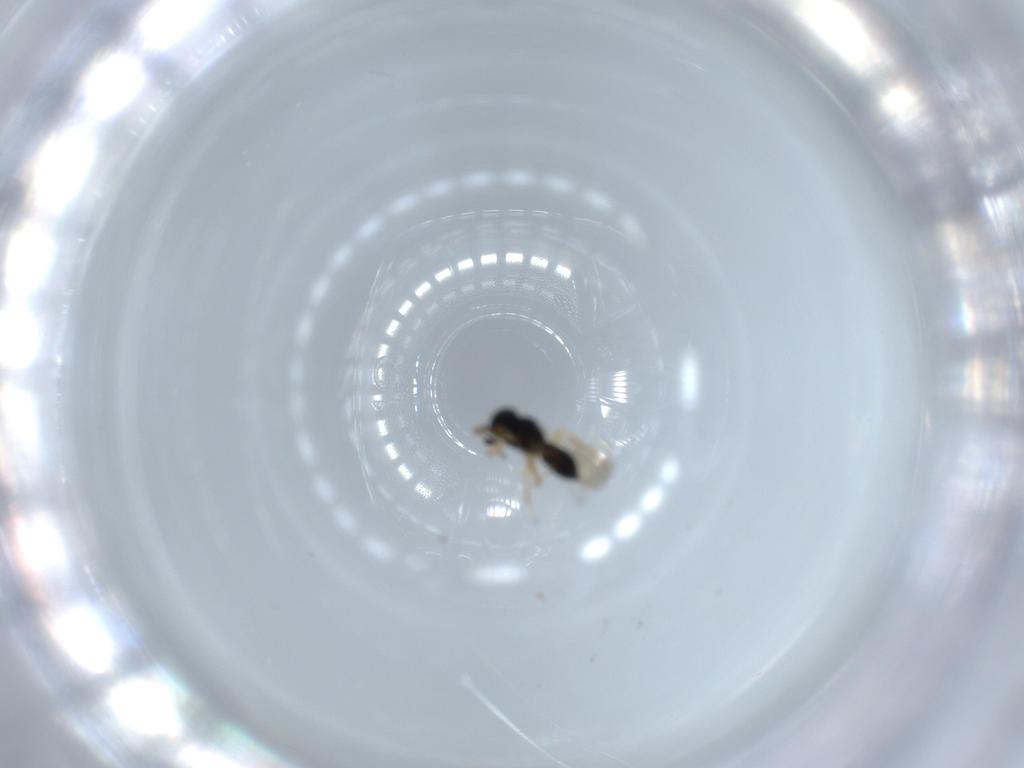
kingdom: Animalia
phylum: Arthropoda
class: Insecta
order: Hymenoptera
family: Scelionidae
